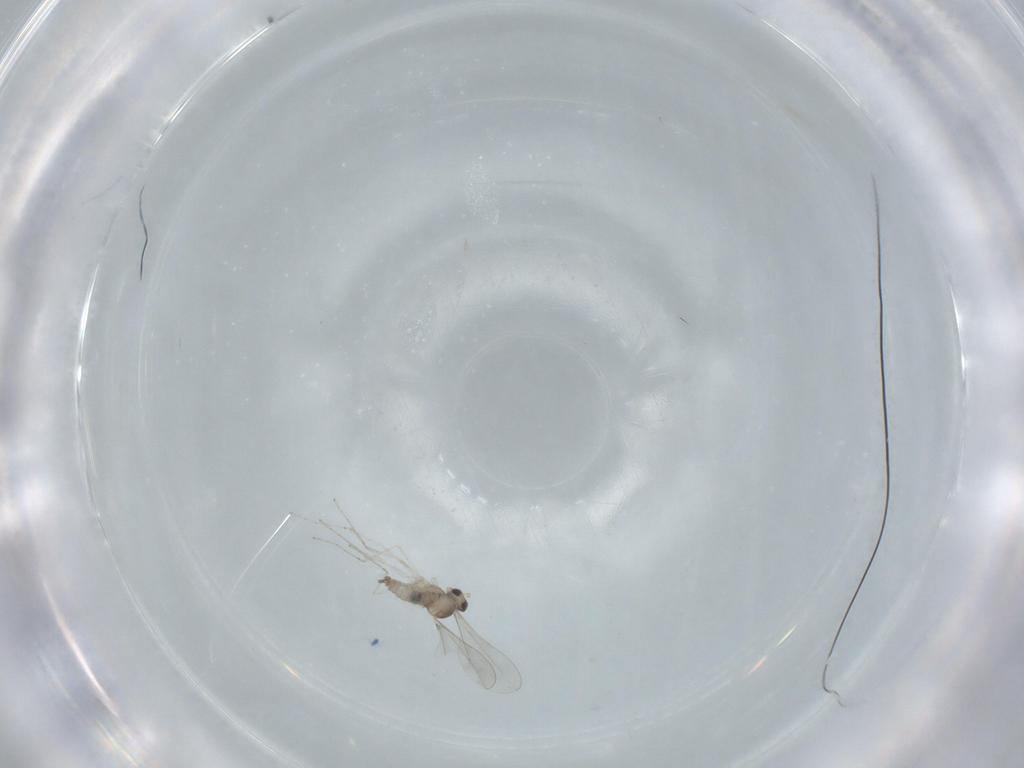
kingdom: Animalia
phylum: Arthropoda
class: Insecta
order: Diptera
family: Cecidomyiidae
